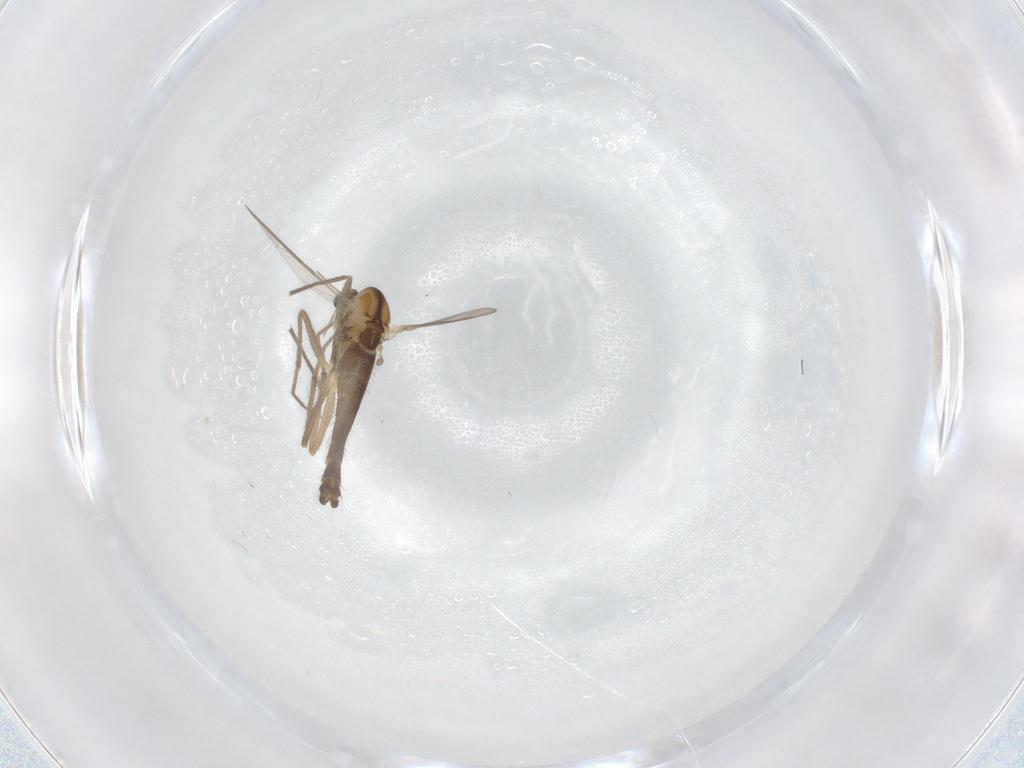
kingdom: Animalia
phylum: Arthropoda
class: Insecta
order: Diptera
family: Chironomidae
